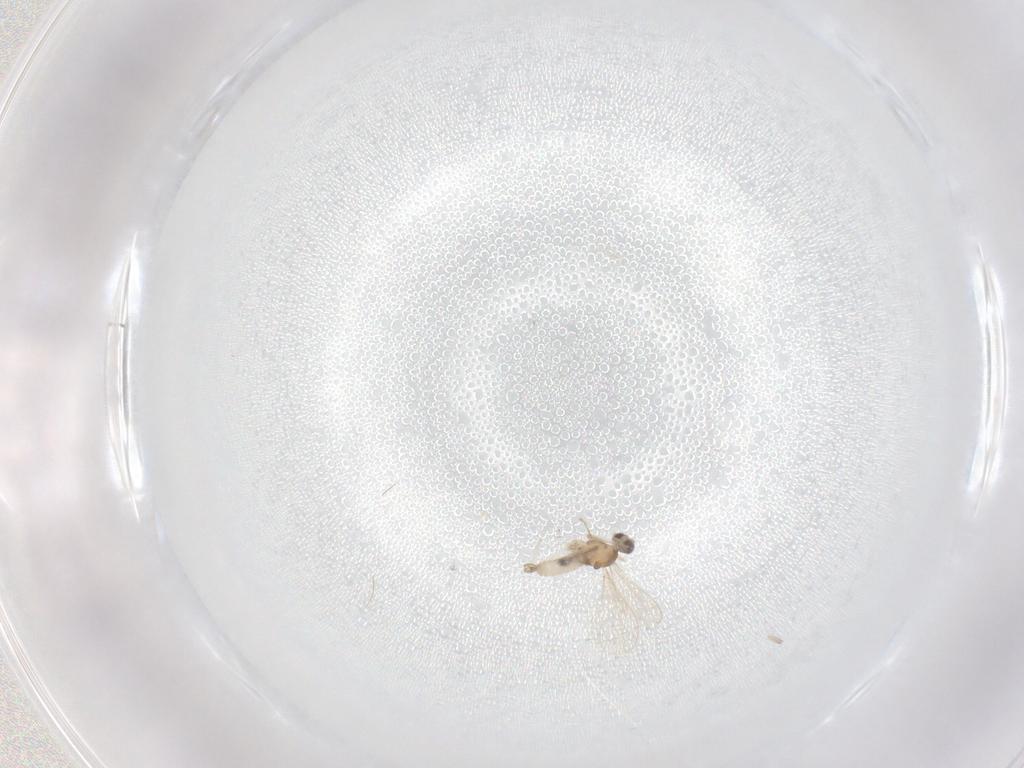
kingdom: Animalia
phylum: Arthropoda
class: Insecta
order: Diptera
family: Cecidomyiidae
